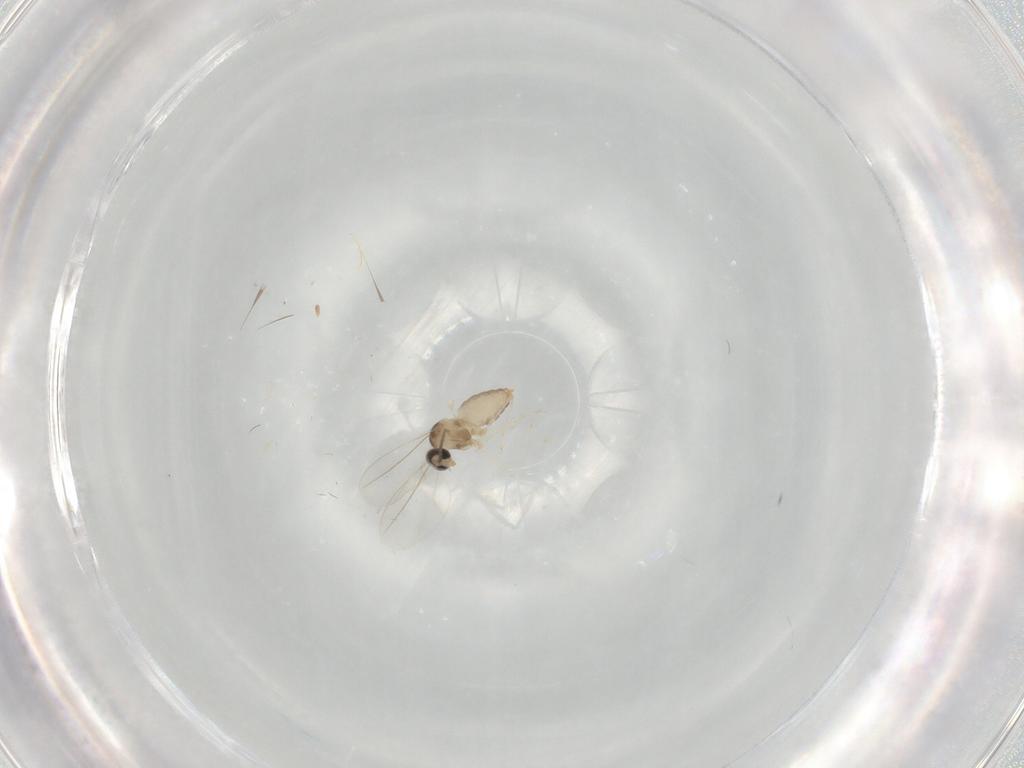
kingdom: Animalia
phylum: Arthropoda
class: Insecta
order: Diptera
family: Cecidomyiidae
